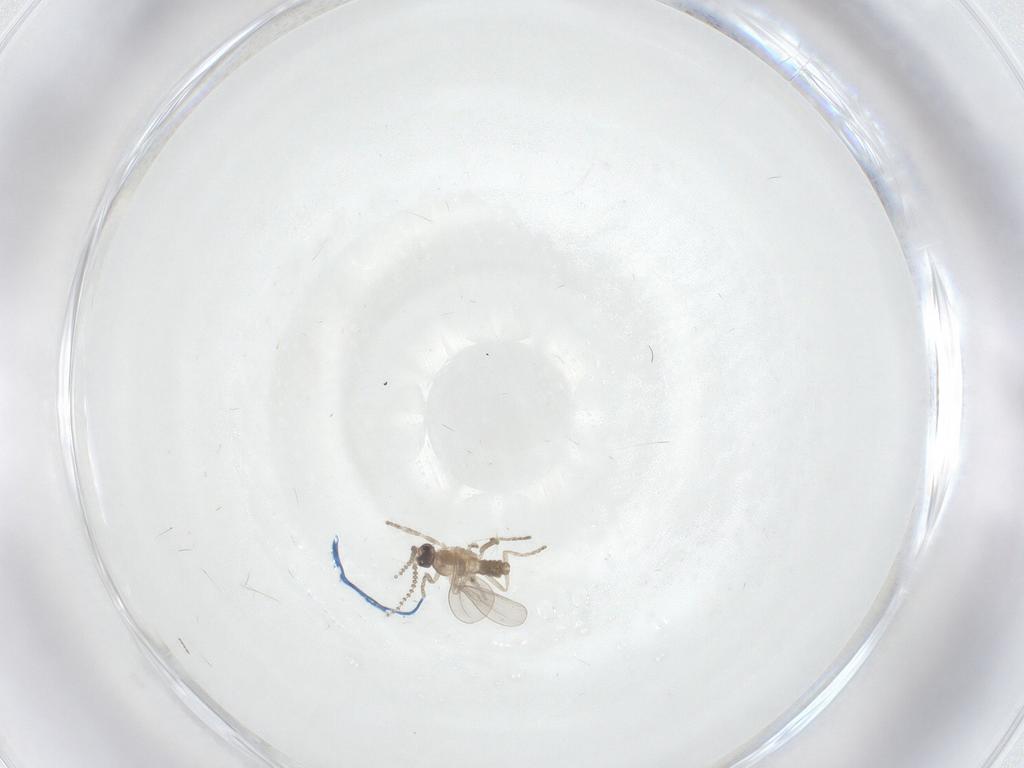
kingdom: Animalia
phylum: Arthropoda
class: Insecta
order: Diptera
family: Cecidomyiidae
